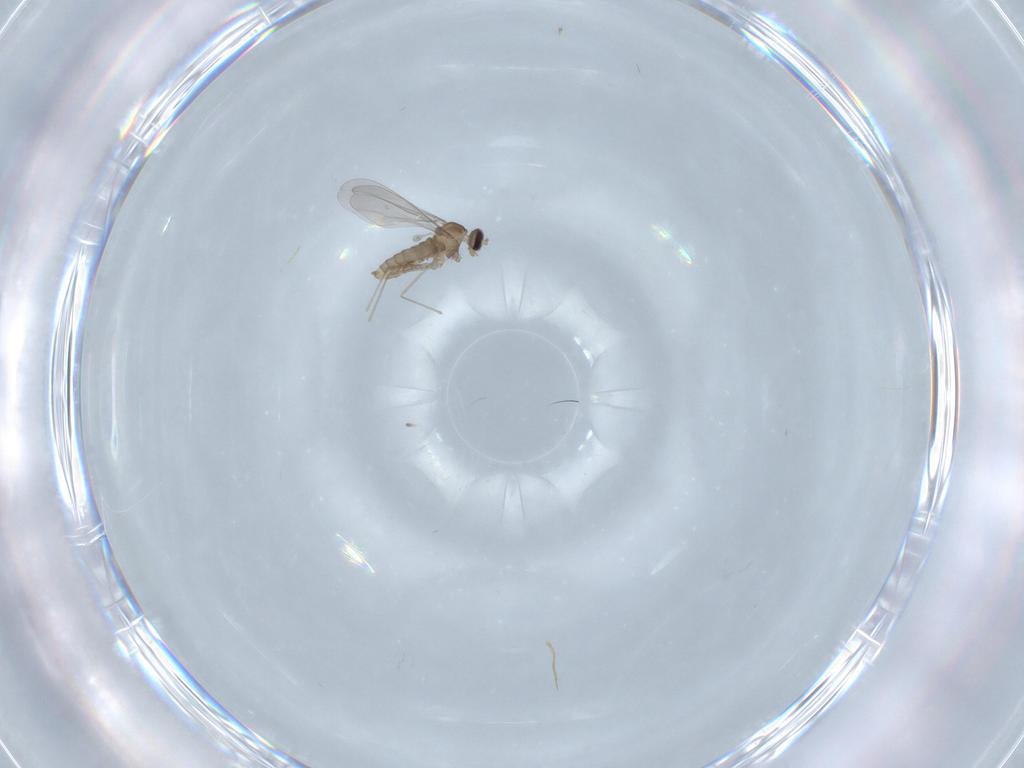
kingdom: Animalia
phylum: Arthropoda
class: Insecta
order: Diptera
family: Cecidomyiidae
